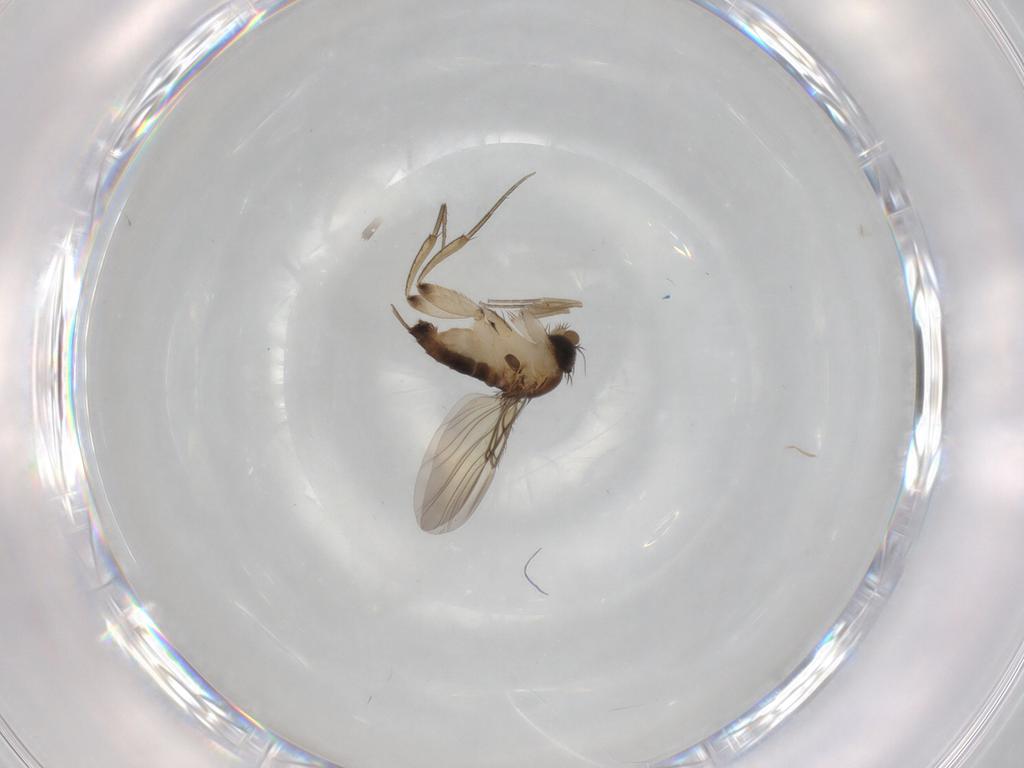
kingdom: Animalia
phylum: Arthropoda
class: Insecta
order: Diptera
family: Phoridae
